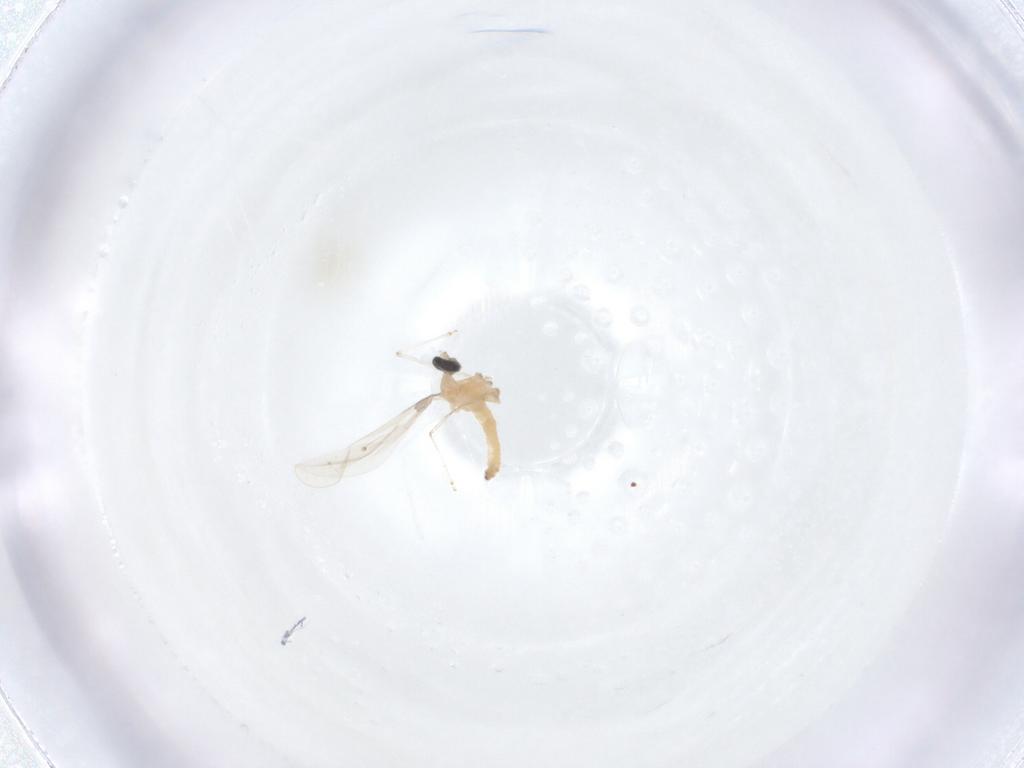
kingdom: Animalia
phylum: Arthropoda
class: Insecta
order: Diptera
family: Cecidomyiidae
